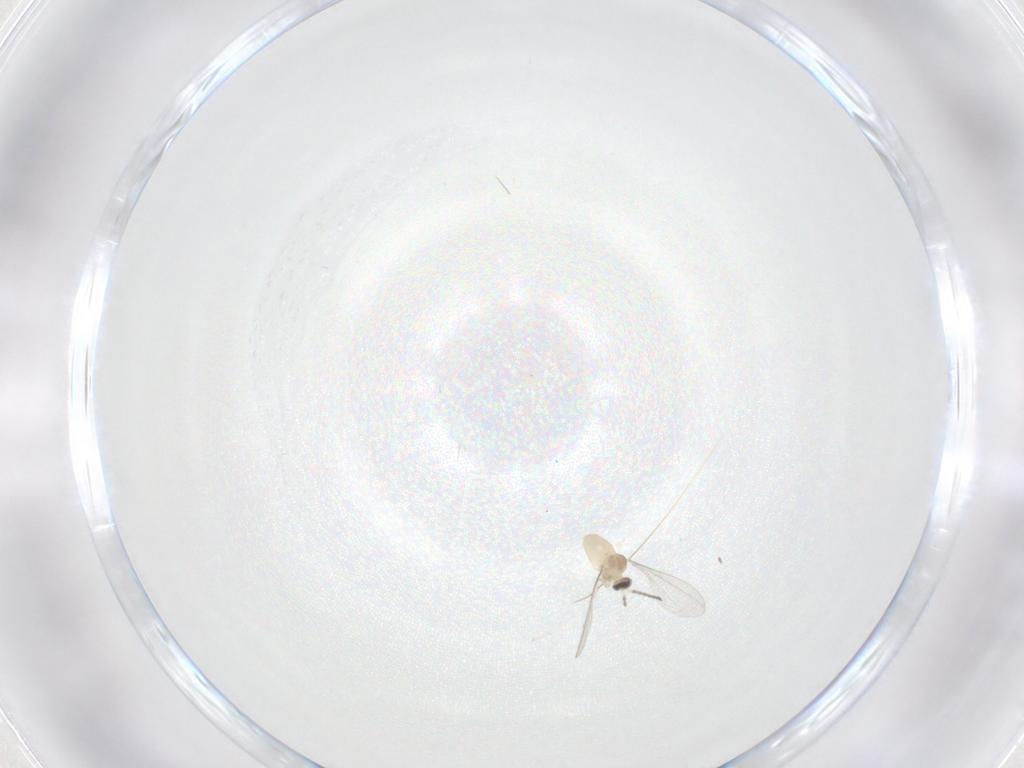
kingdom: Animalia
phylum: Arthropoda
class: Insecta
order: Diptera
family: Cecidomyiidae
